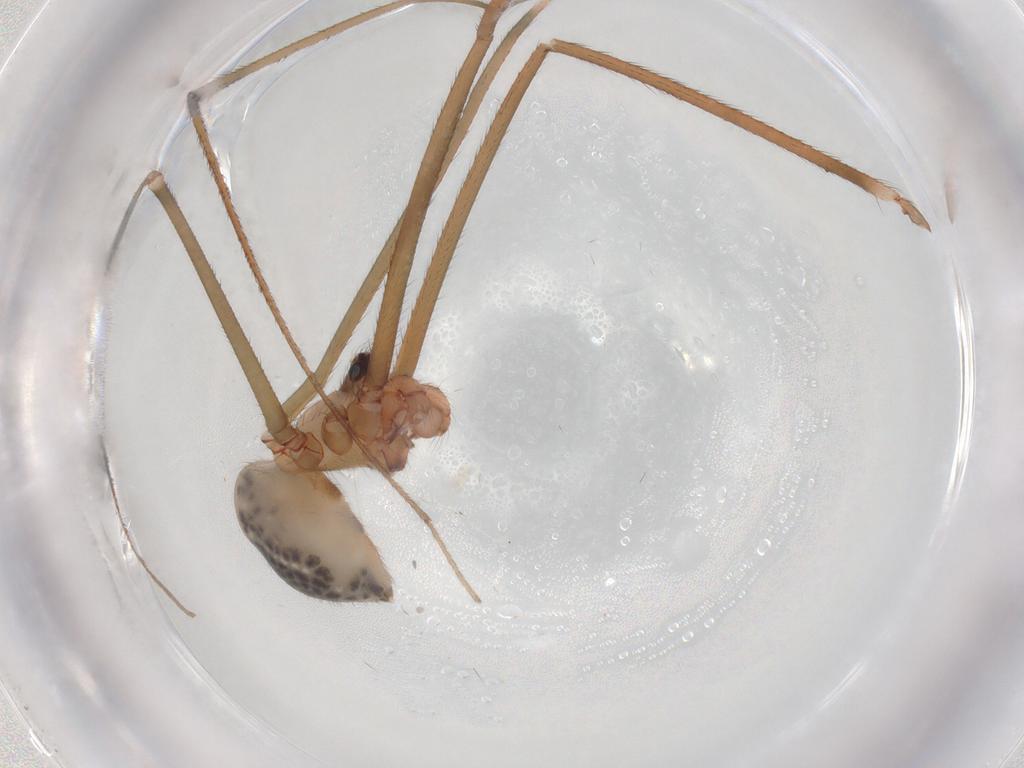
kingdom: Animalia
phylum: Arthropoda
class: Arachnida
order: Araneae
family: Pholcidae
